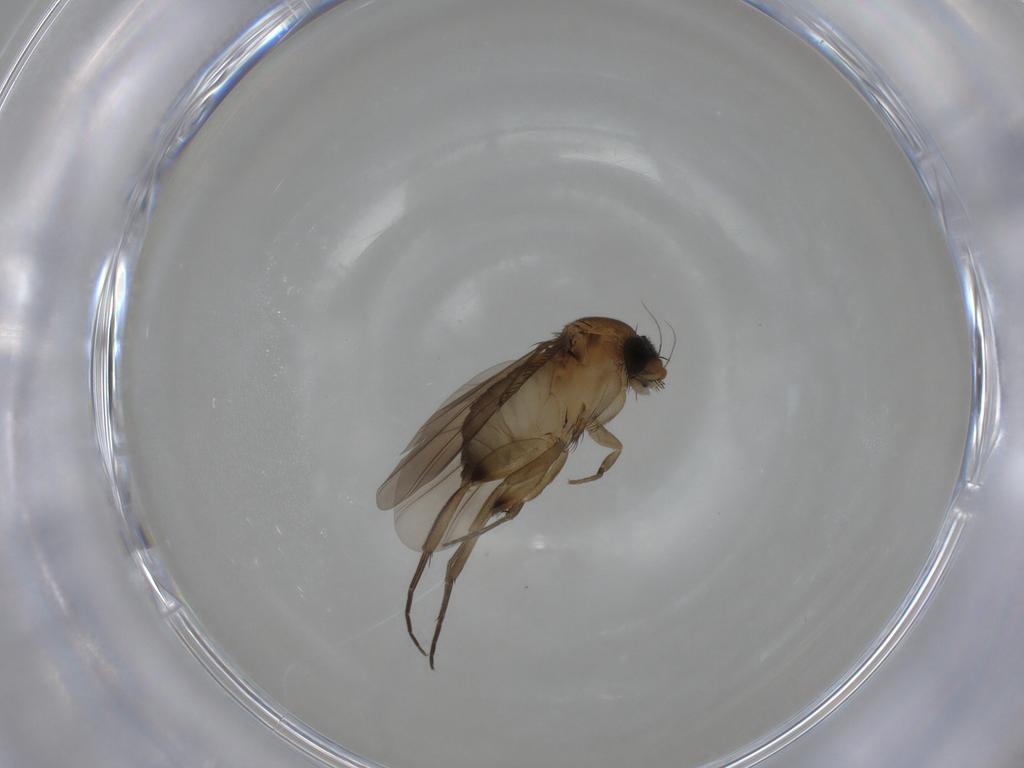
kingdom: Animalia
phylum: Arthropoda
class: Insecta
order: Diptera
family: Phoridae
